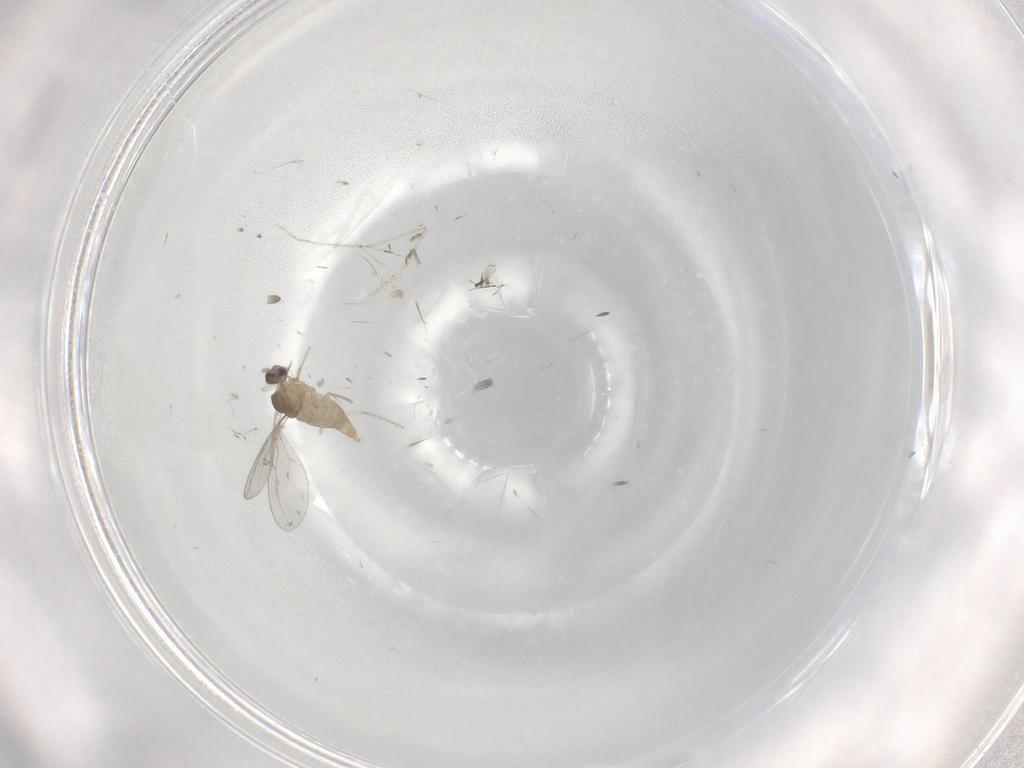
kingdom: Animalia
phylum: Arthropoda
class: Insecta
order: Diptera
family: Cecidomyiidae
